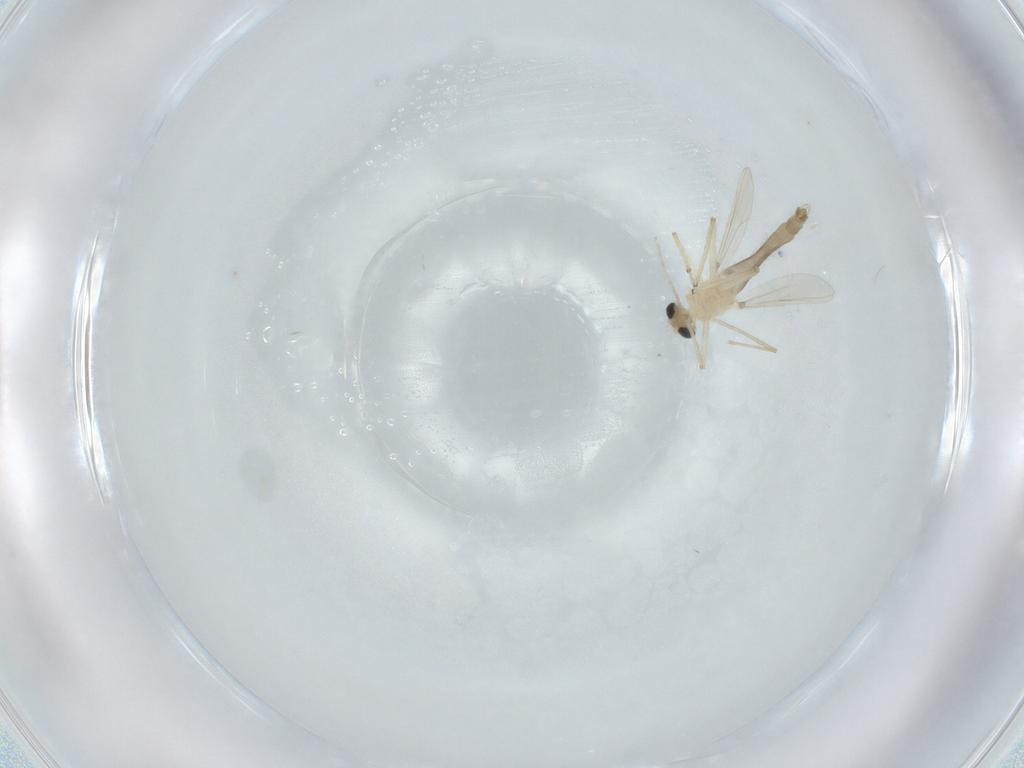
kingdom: Animalia
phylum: Arthropoda
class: Insecta
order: Diptera
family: Chironomidae
